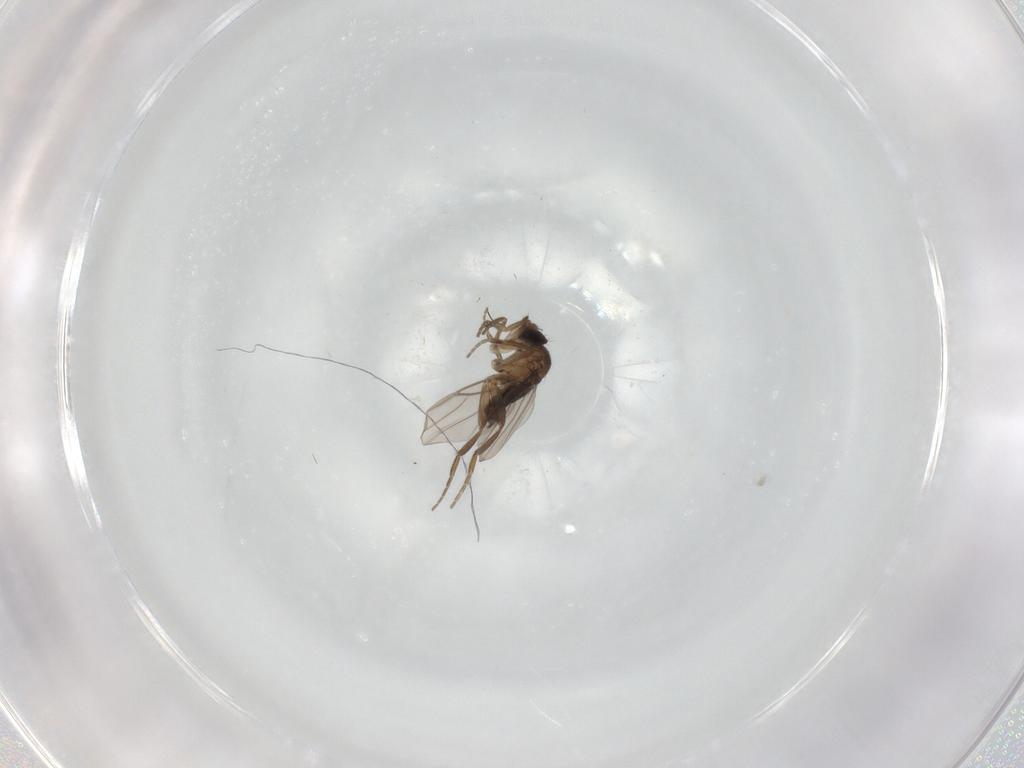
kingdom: Animalia
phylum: Arthropoda
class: Insecta
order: Diptera
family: Phoridae
